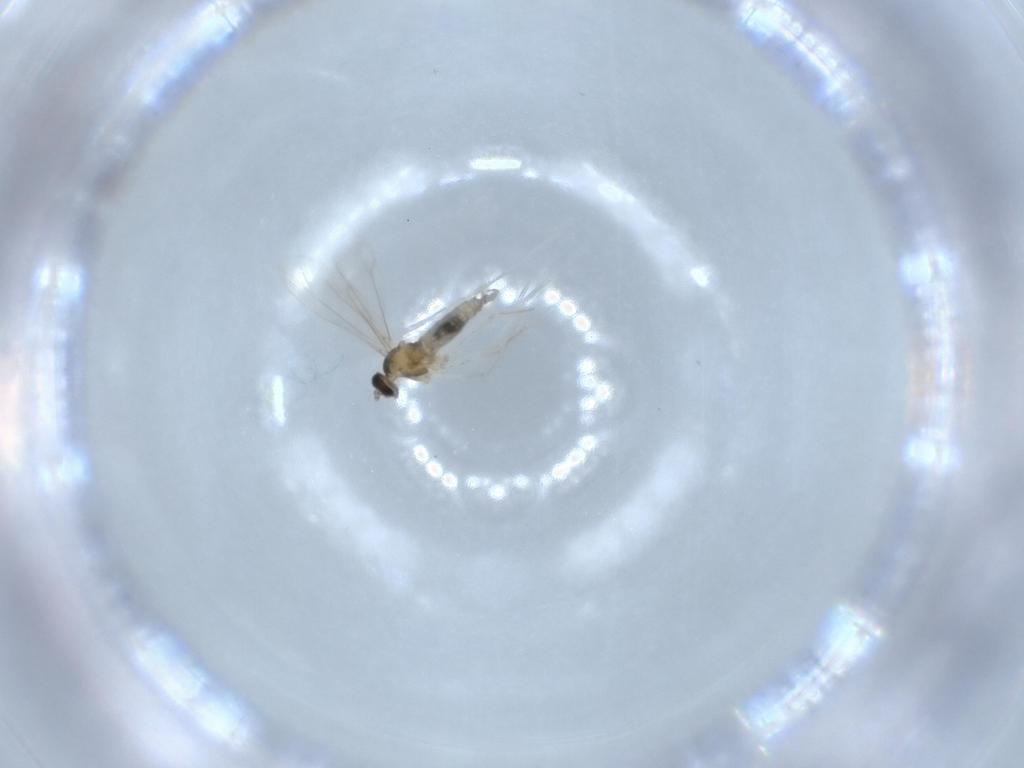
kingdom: Animalia
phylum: Arthropoda
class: Insecta
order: Diptera
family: Cecidomyiidae
